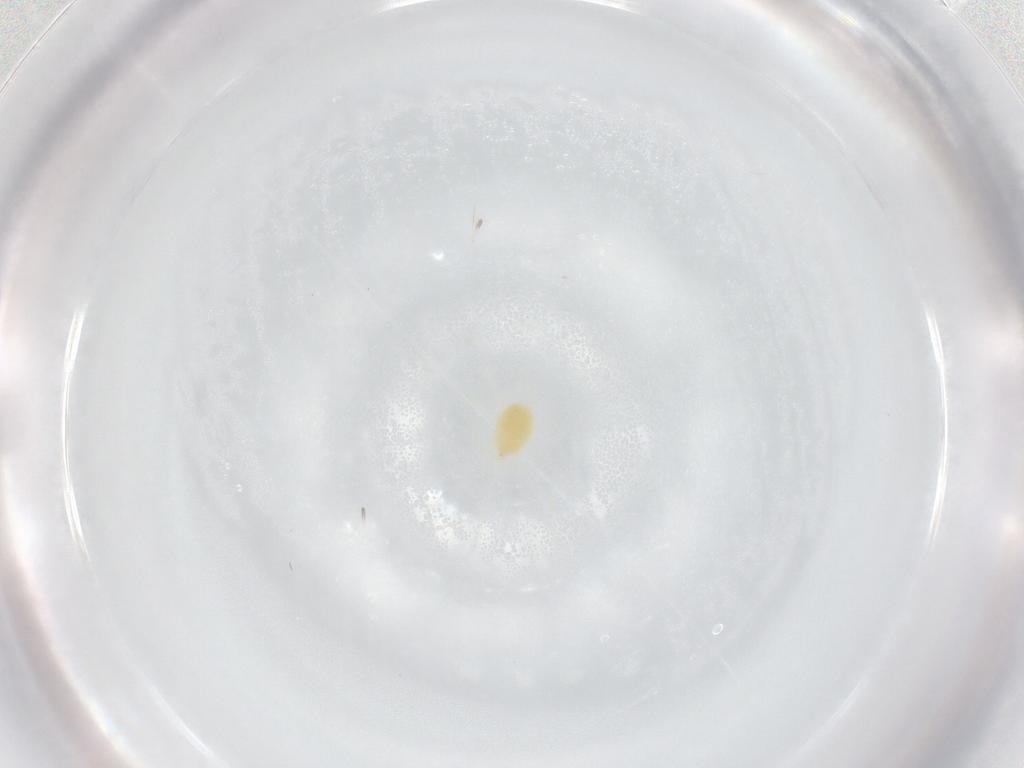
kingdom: Animalia
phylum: Arthropoda
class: Arachnida
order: Trombidiformes
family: Tetranychidae
